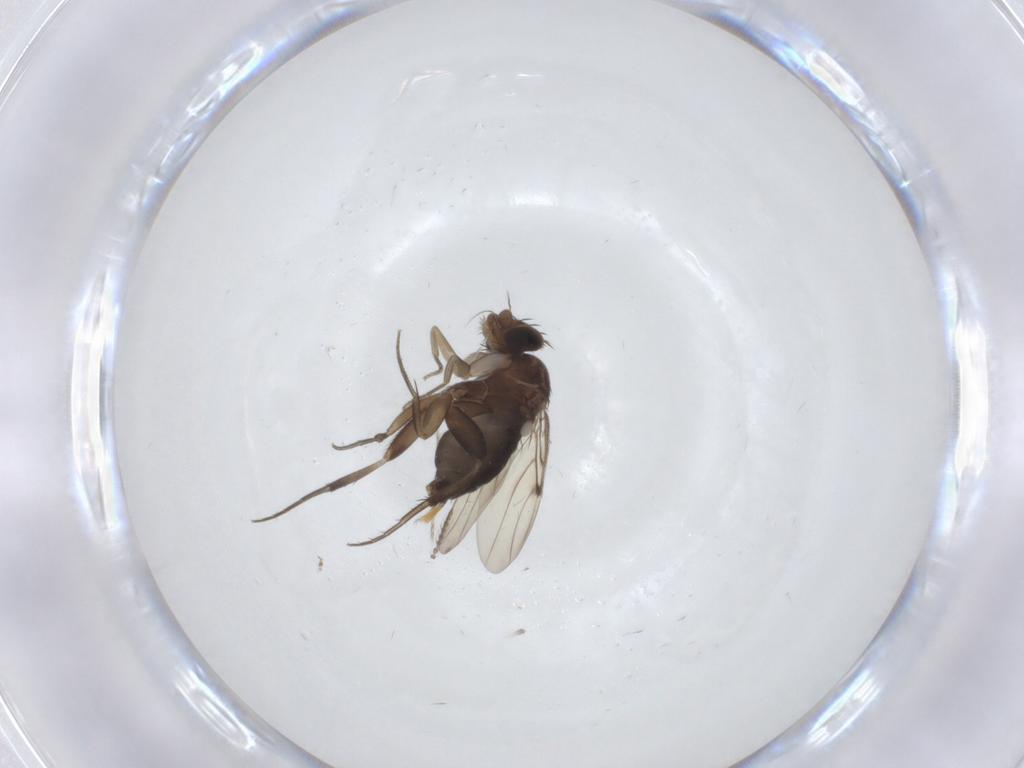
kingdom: Animalia
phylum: Arthropoda
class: Insecta
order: Diptera
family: Phoridae
